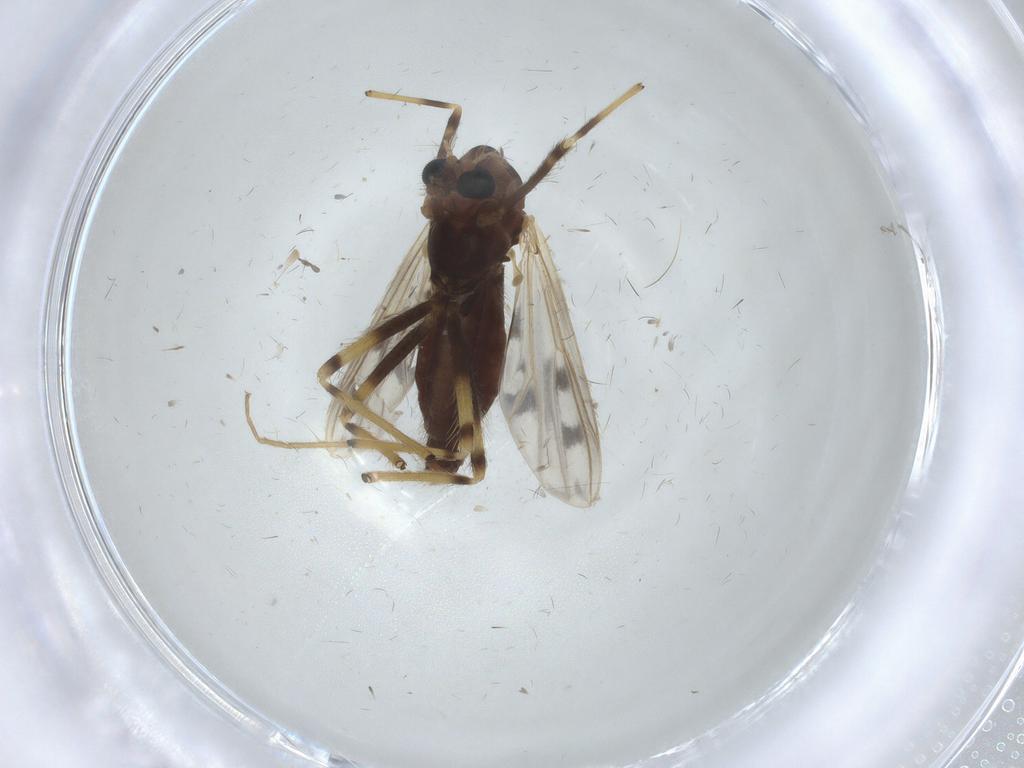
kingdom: Animalia
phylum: Arthropoda
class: Insecta
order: Diptera
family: Chironomidae
